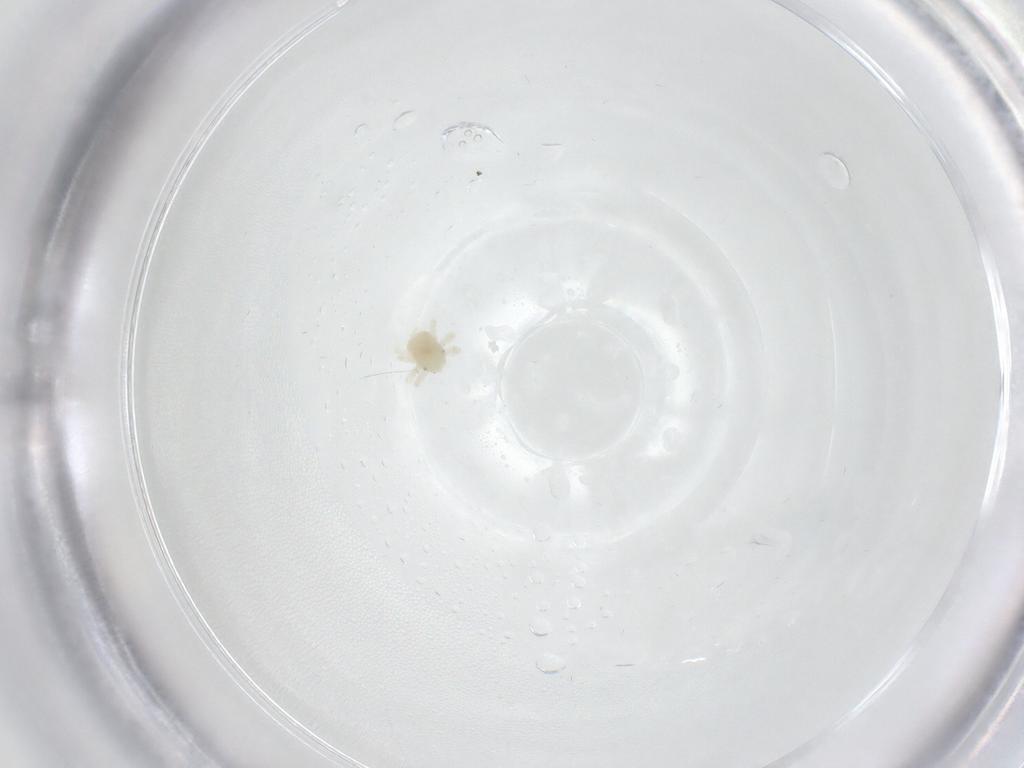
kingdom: Animalia
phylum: Arthropoda
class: Arachnida
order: Trombidiformes
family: Anystidae
